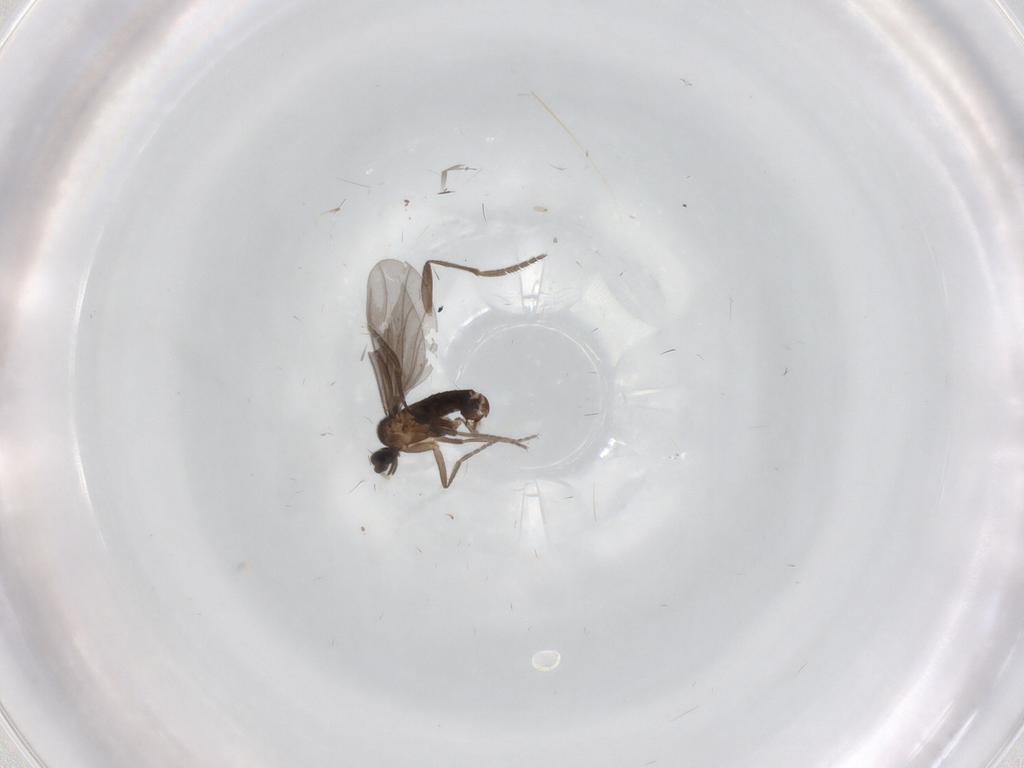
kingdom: Animalia
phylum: Arthropoda
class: Insecta
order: Diptera
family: Phoridae
